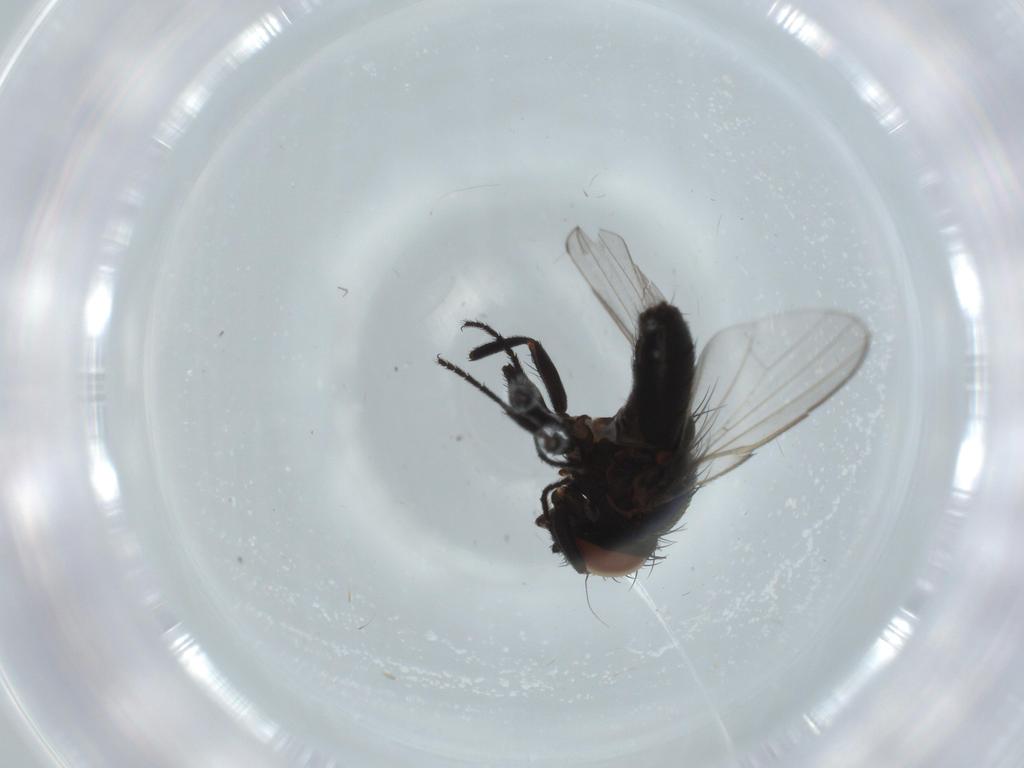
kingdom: Animalia
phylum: Arthropoda
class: Insecta
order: Diptera
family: Milichiidae
